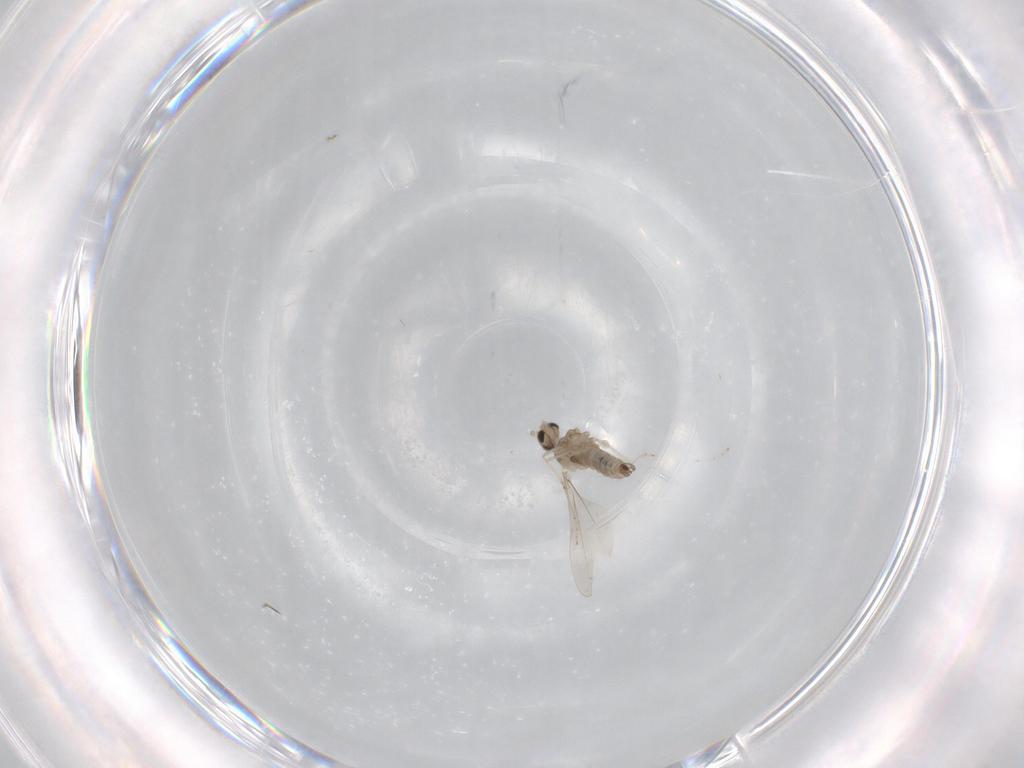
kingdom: Animalia
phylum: Arthropoda
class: Insecta
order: Diptera
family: Cecidomyiidae
